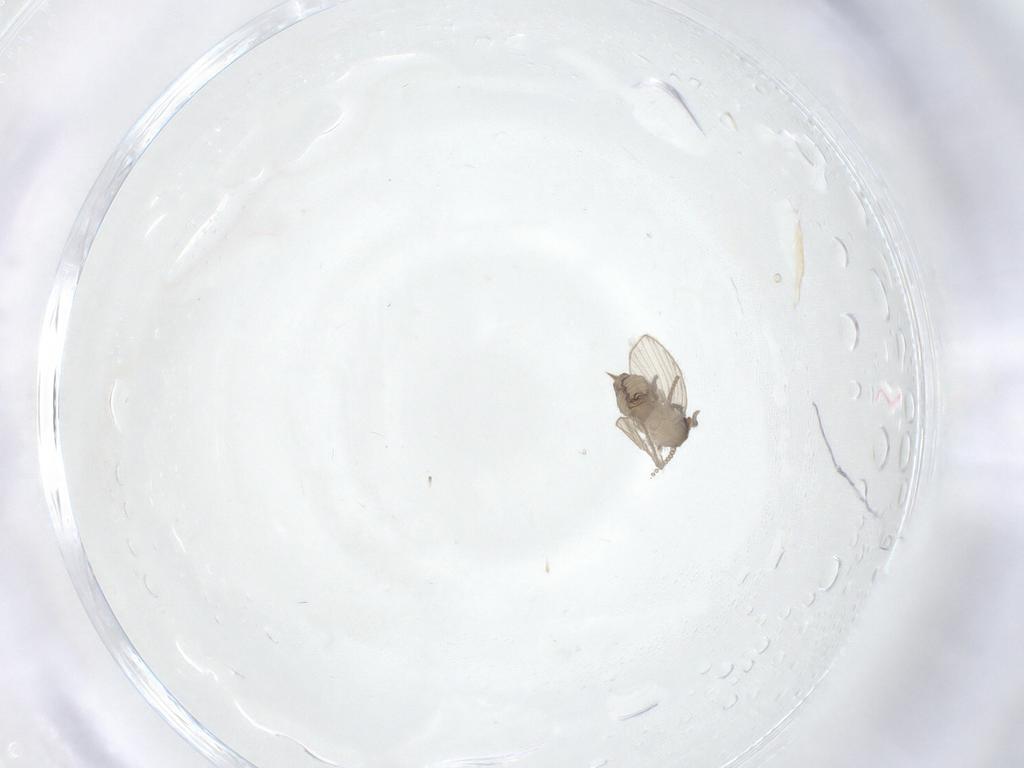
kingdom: Animalia
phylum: Arthropoda
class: Insecta
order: Diptera
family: Psychodidae
